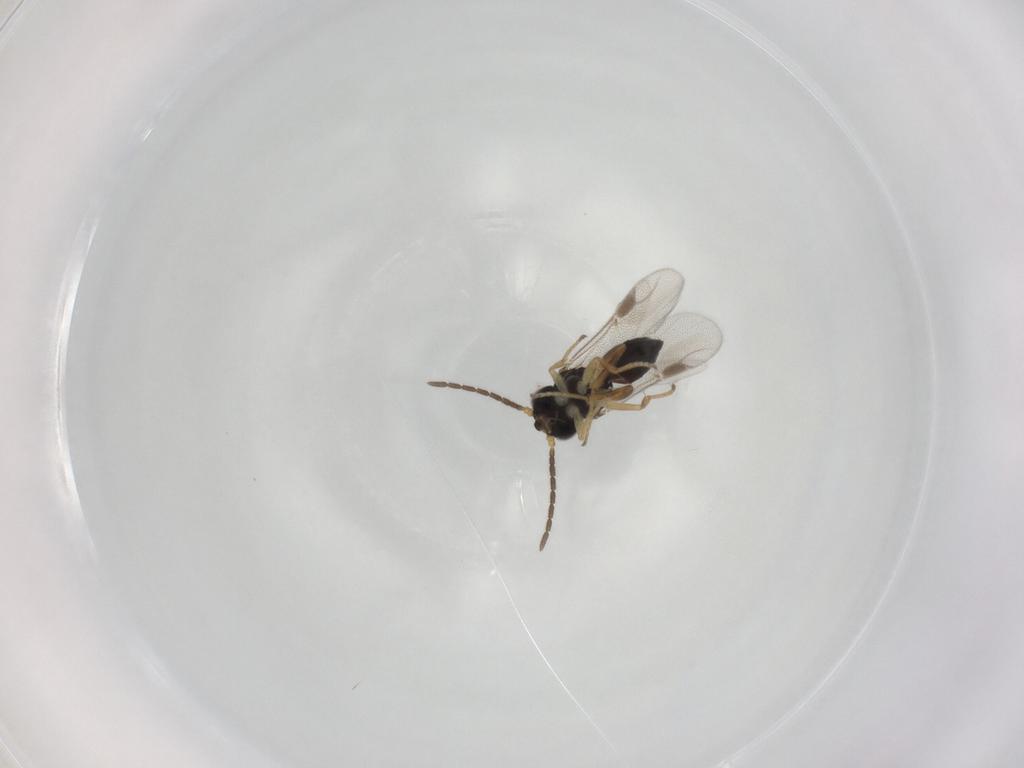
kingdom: Animalia
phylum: Arthropoda
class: Insecta
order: Hymenoptera
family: Dryinidae
